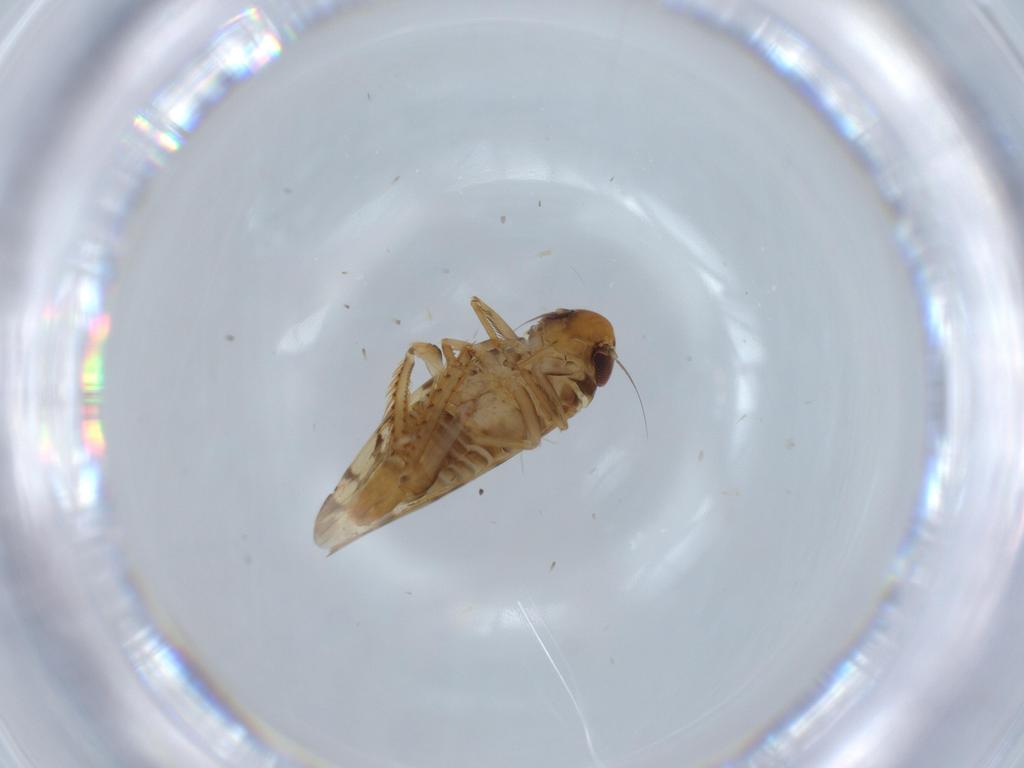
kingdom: Animalia
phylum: Arthropoda
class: Insecta
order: Hemiptera
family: Cicadellidae
